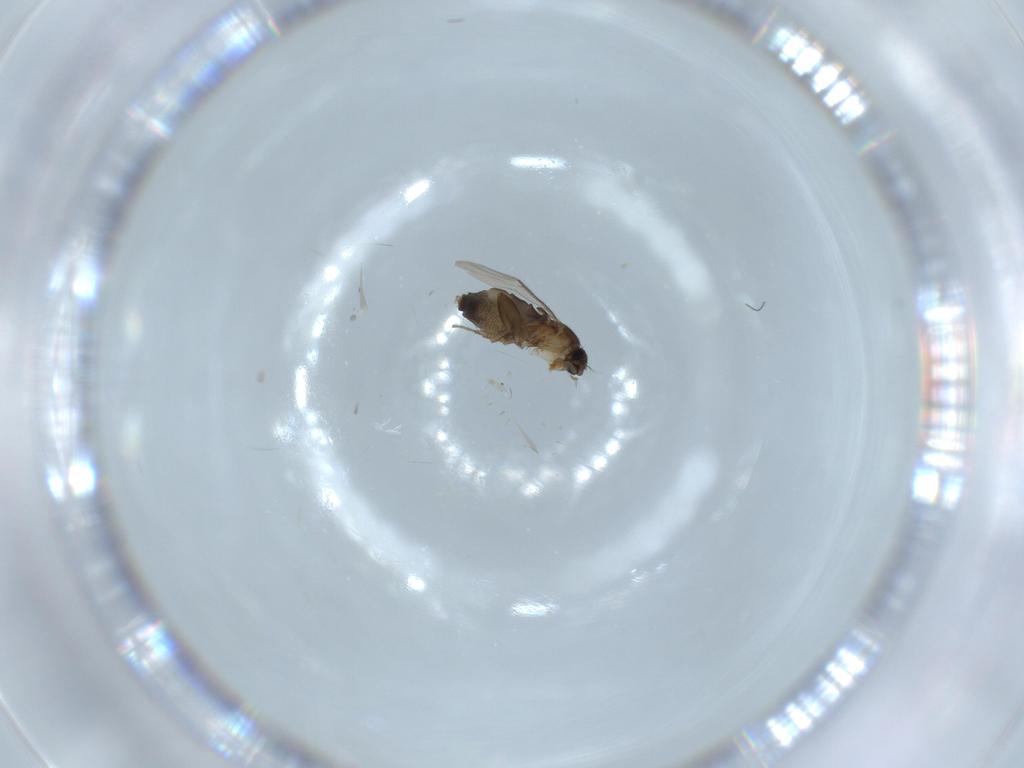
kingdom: Animalia
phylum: Arthropoda
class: Insecta
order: Diptera
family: Phoridae
